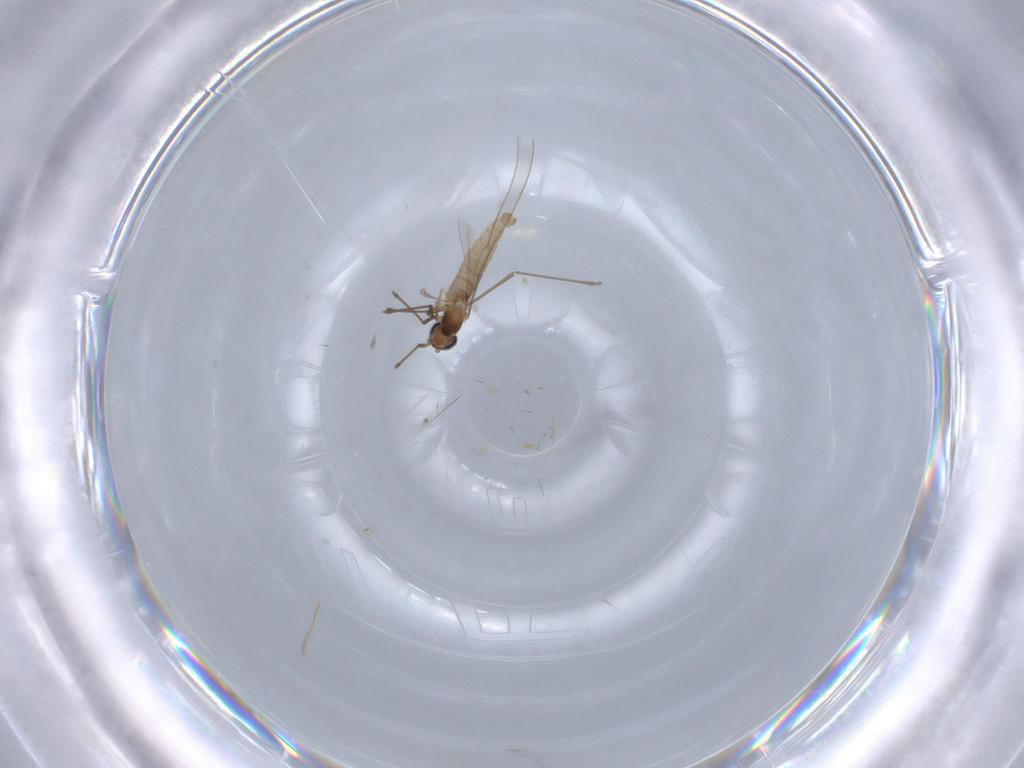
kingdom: Animalia
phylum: Arthropoda
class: Insecta
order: Diptera
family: Cecidomyiidae
